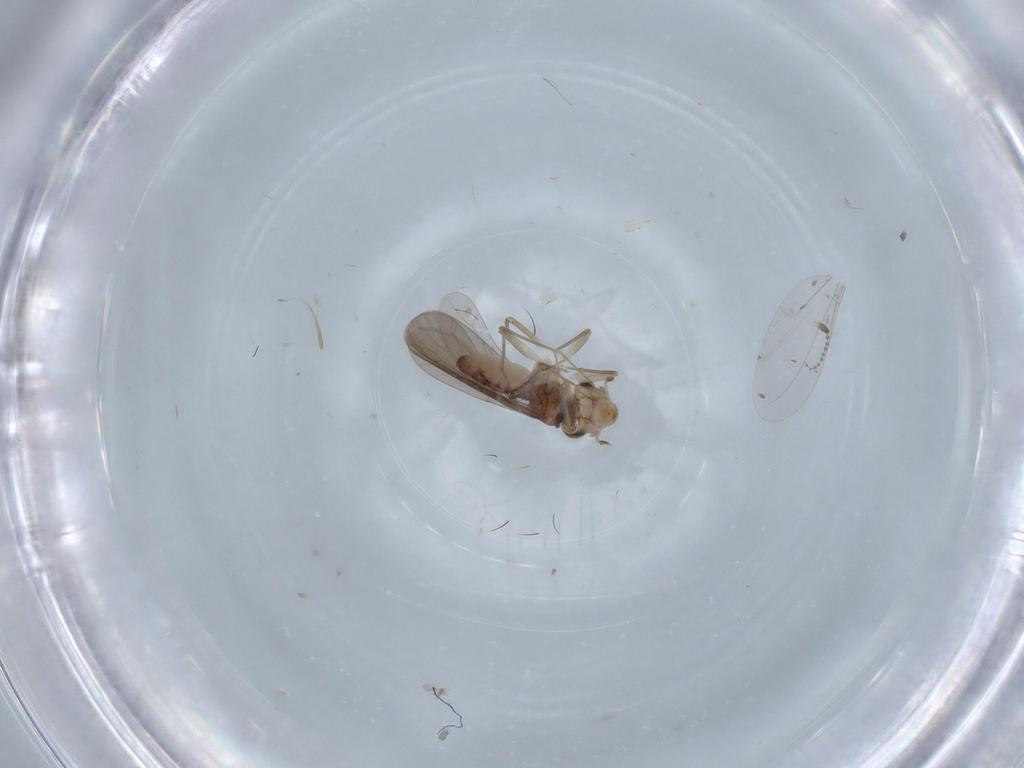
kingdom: Animalia
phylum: Arthropoda
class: Insecta
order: Psocodea
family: Lepidopsocidae
